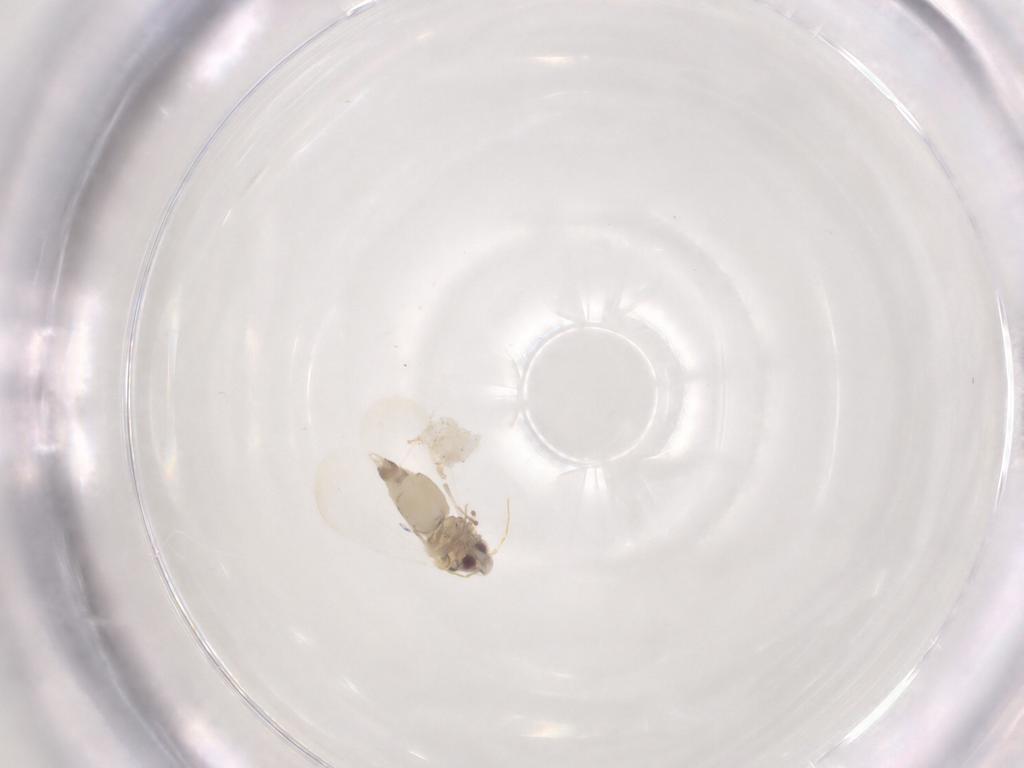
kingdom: Animalia
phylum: Arthropoda
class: Insecta
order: Hemiptera
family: Aleyrodidae
